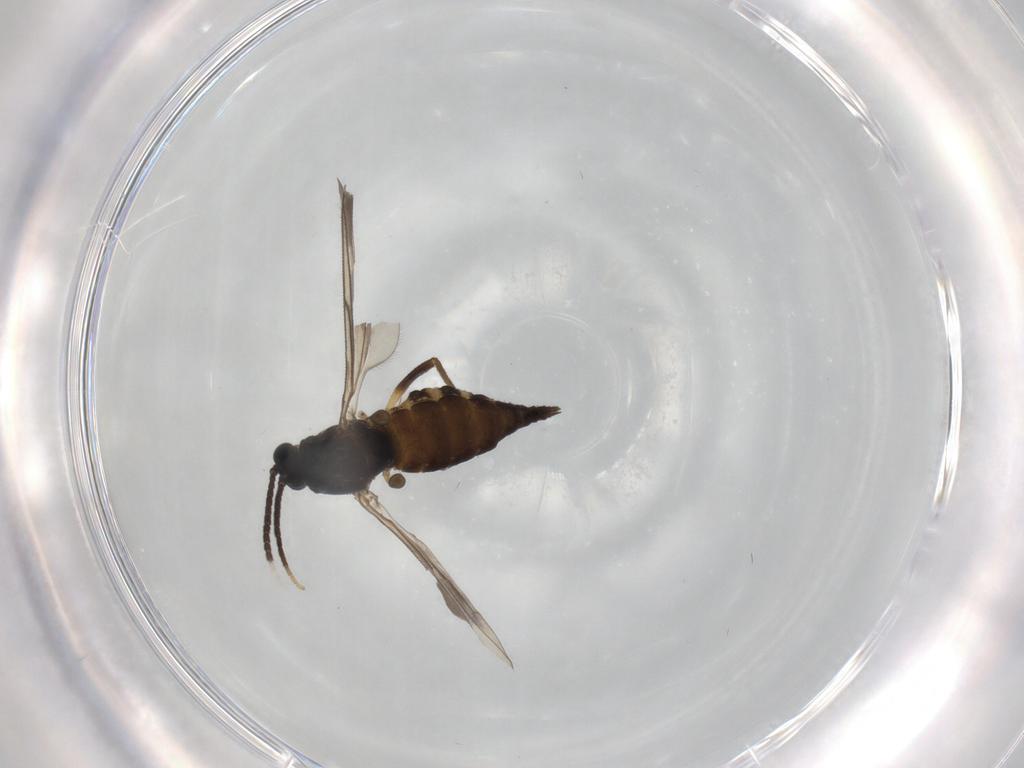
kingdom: Animalia
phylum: Arthropoda
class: Insecta
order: Diptera
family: Sciaridae
